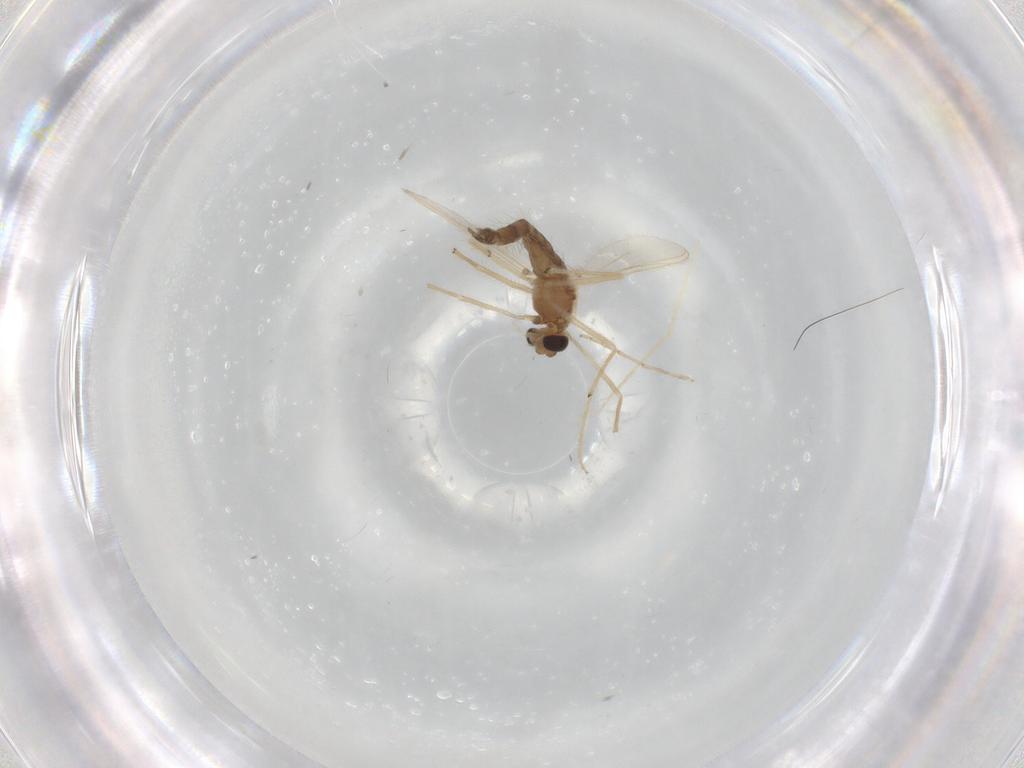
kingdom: Animalia
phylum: Arthropoda
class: Insecta
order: Diptera
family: Chironomidae
